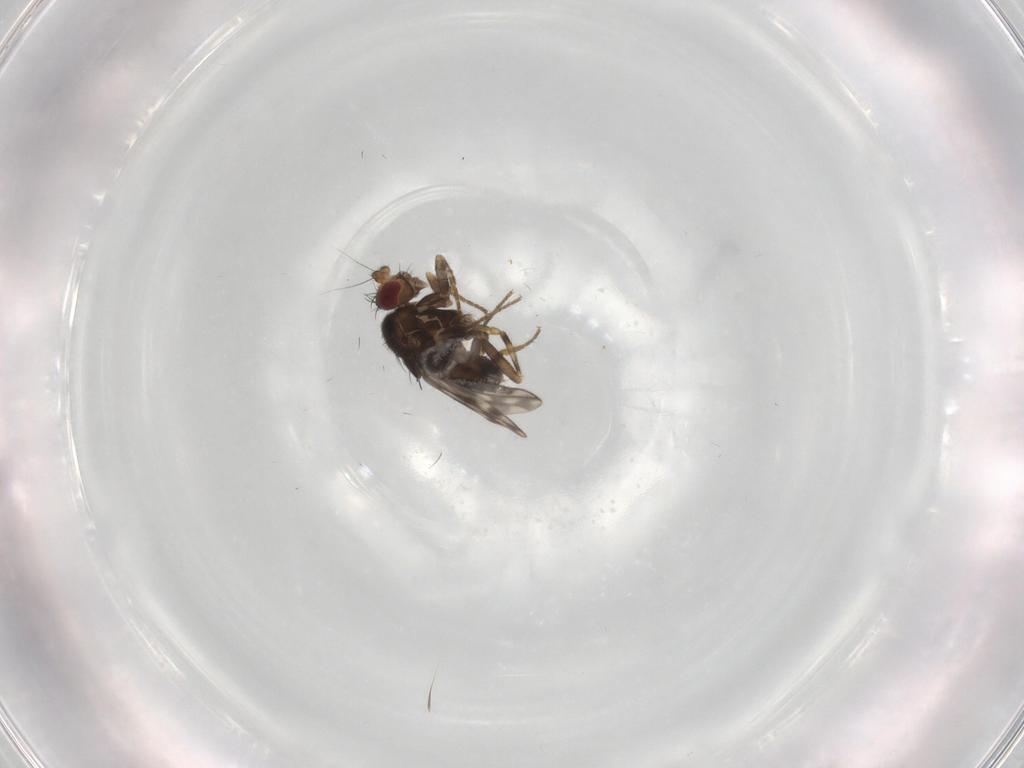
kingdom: Animalia
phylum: Arthropoda
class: Insecta
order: Diptera
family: Sphaeroceridae
